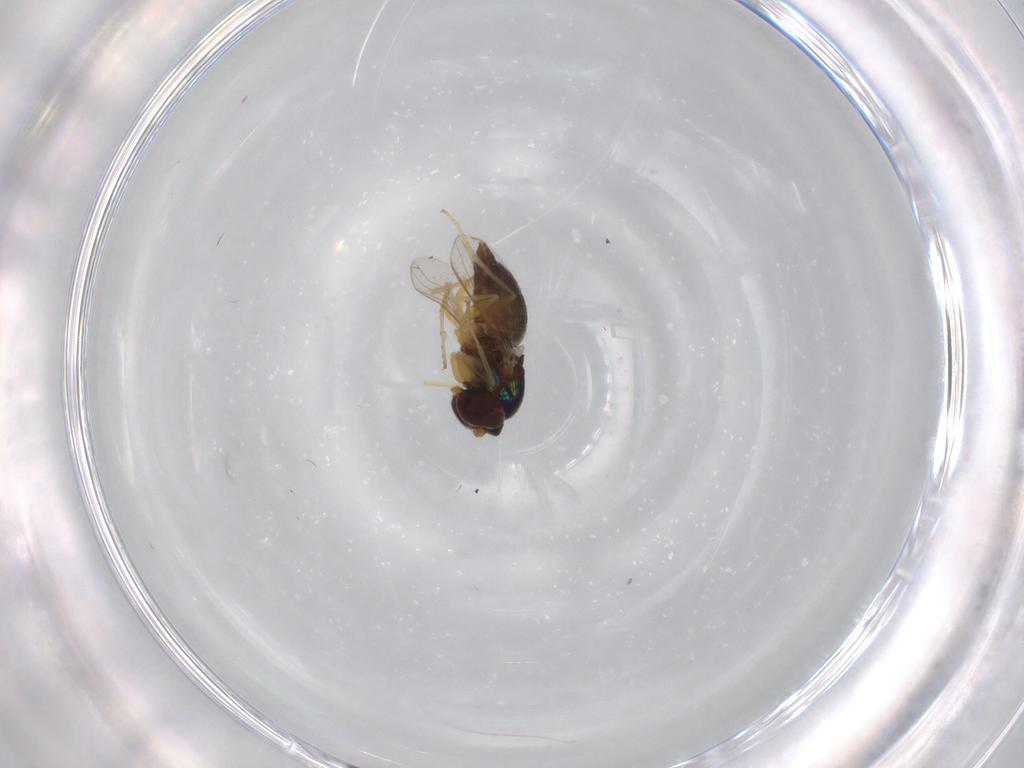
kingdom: Animalia
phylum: Arthropoda
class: Insecta
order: Diptera
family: Dolichopodidae
